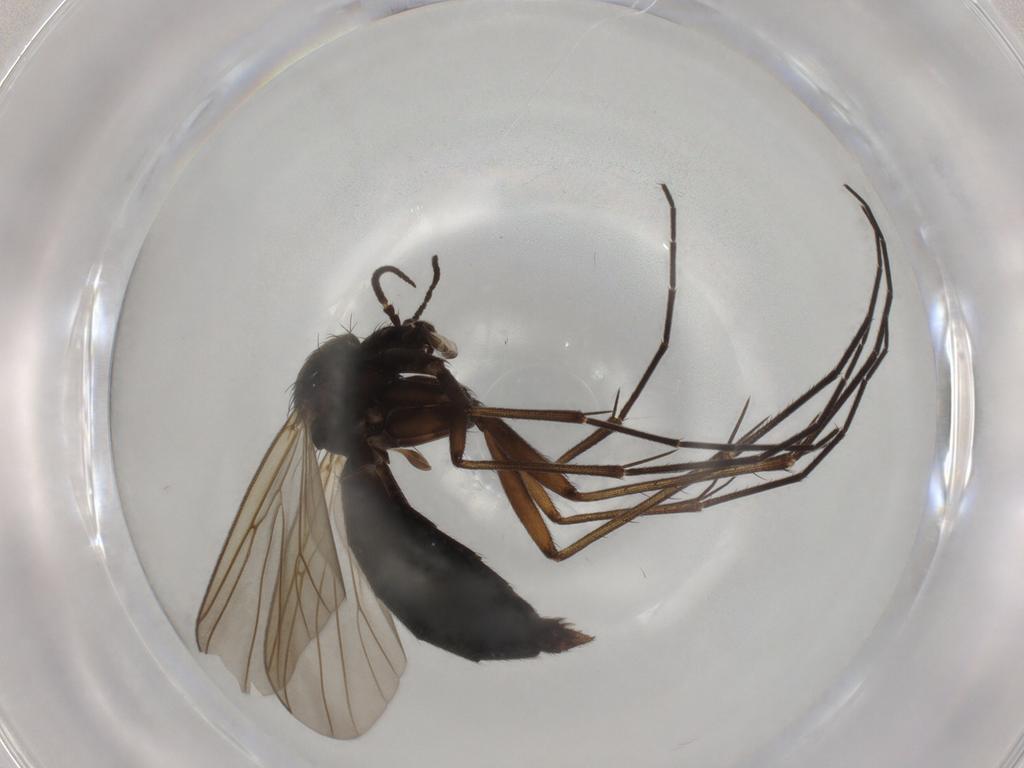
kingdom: Animalia
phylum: Arthropoda
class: Insecta
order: Diptera
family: Mycetophilidae
